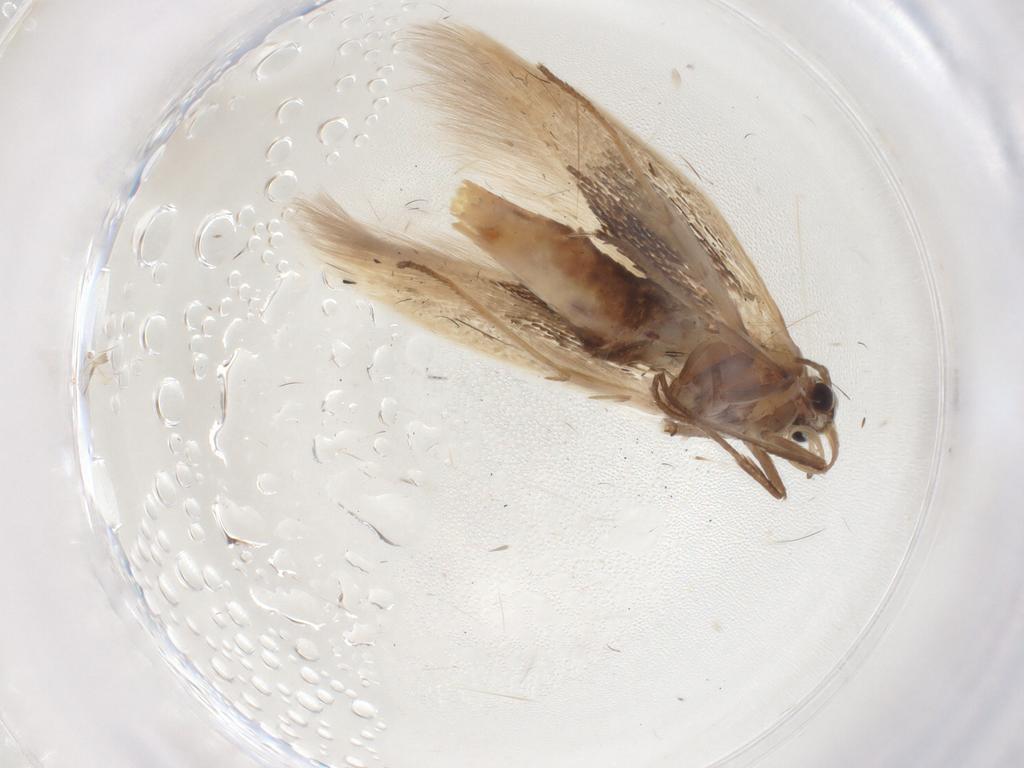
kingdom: Animalia
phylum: Arthropoda
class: Insecta
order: Lepidoptera
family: Scythrididae
